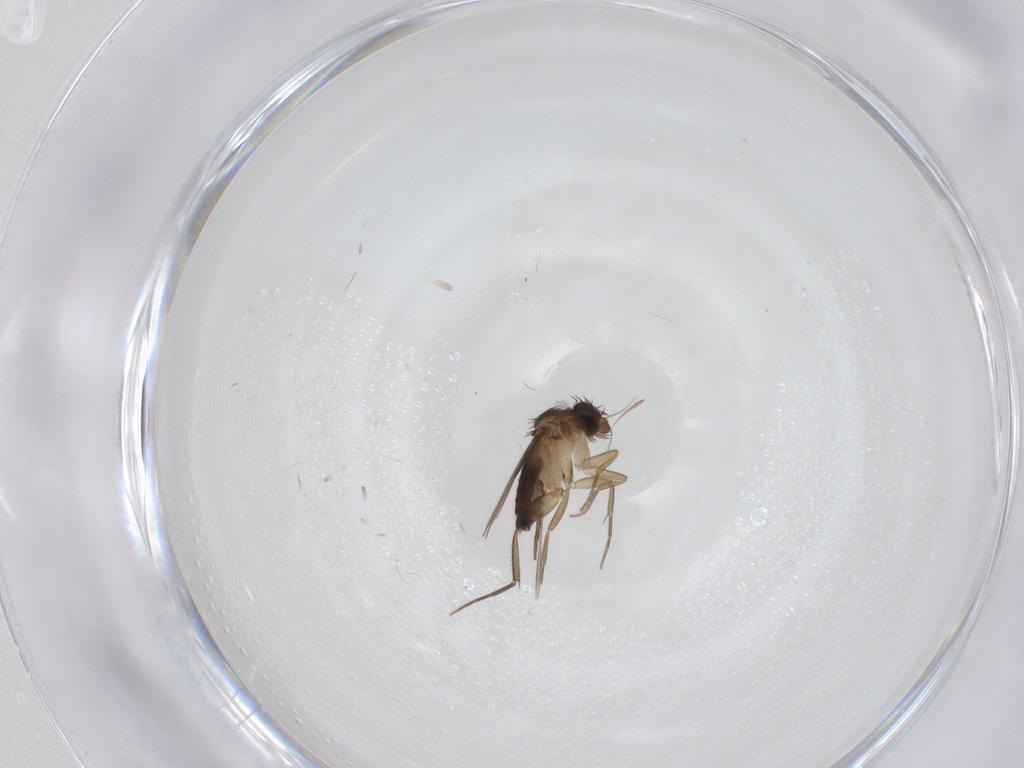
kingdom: Animalia
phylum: Arthropoda
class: Insecta
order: Diptera
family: Phoridae
